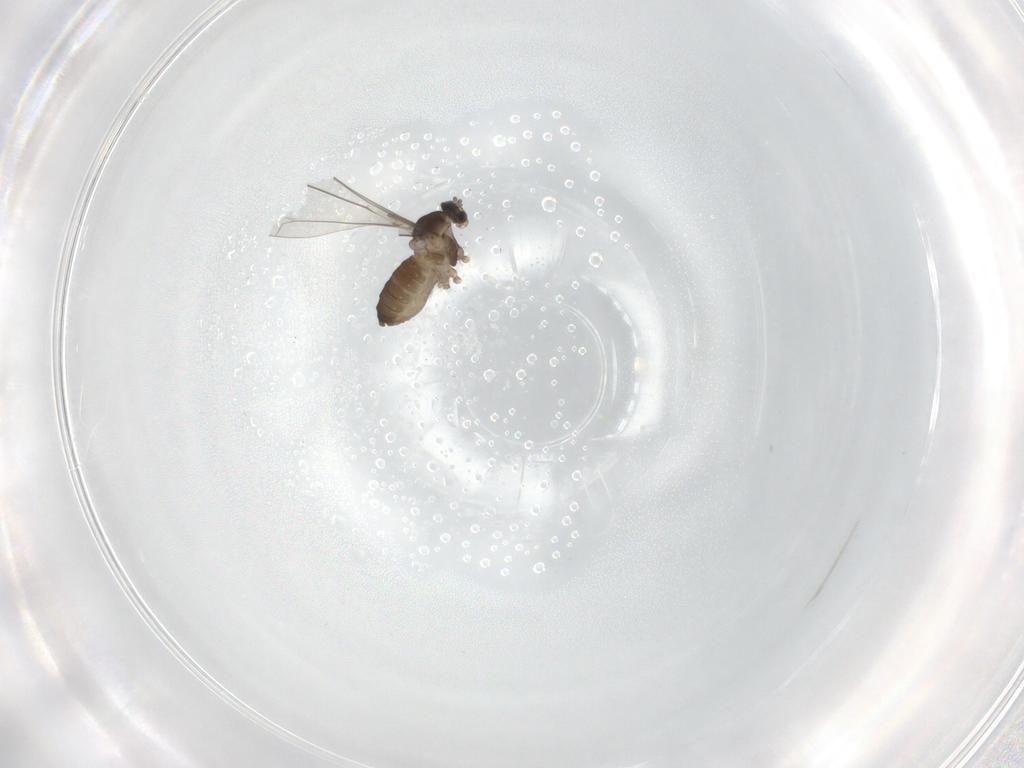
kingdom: Animalia
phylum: Arthropoda
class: Insecta
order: Diptera
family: Cecidomyiidae
